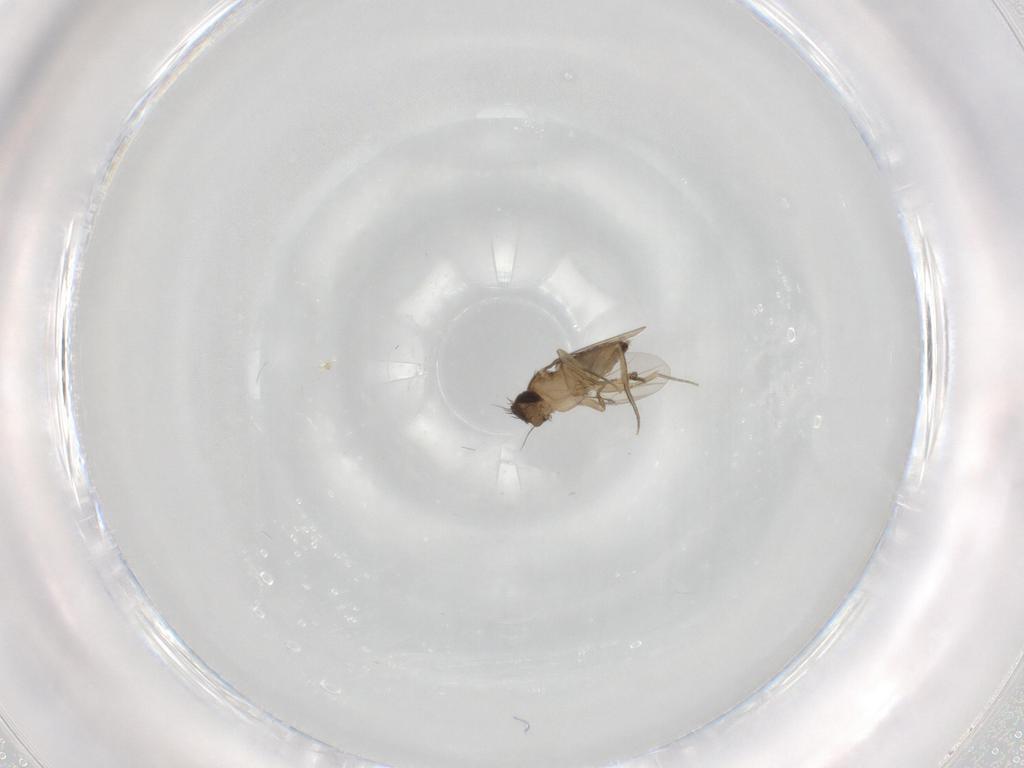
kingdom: Animalia
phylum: Arthropoda
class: Insecta
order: Diptera
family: Phoridae
